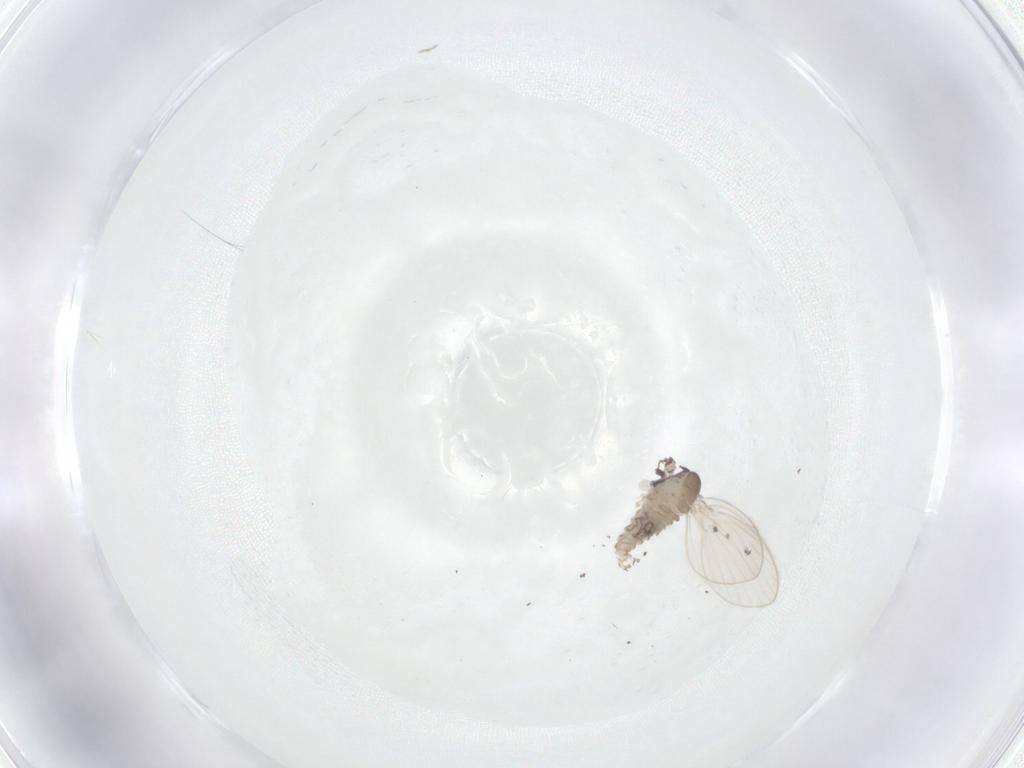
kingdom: Animalia
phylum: Arthropoda
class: Insecta
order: Diptera
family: Psychodidae
